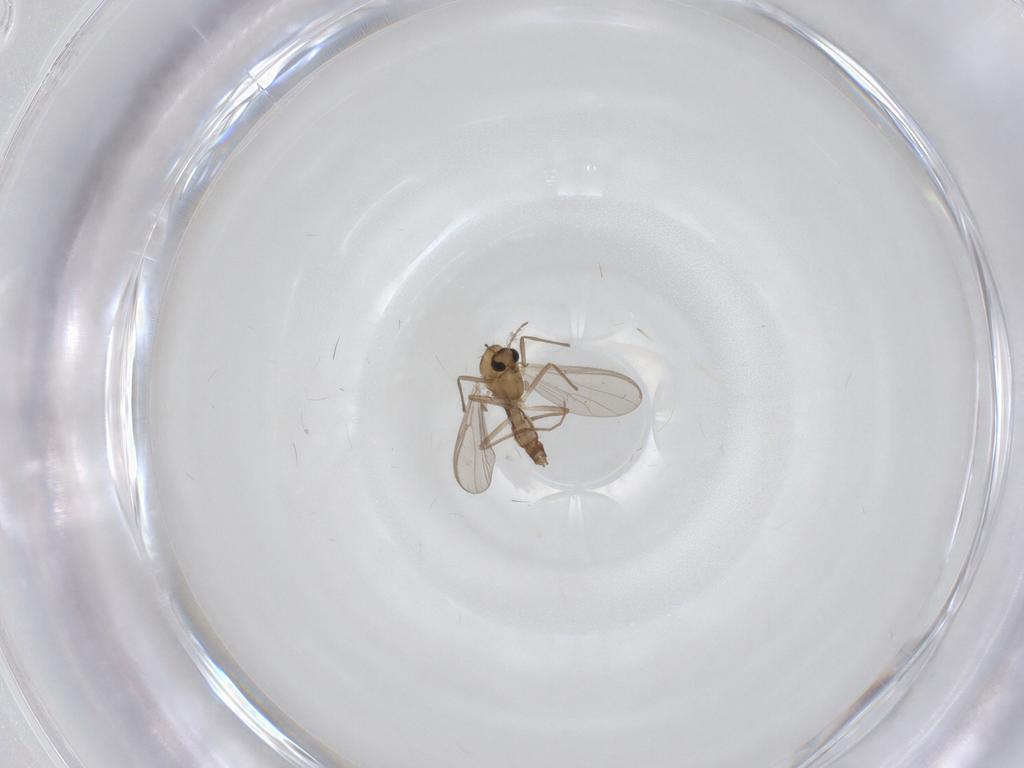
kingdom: Animalia
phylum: Arthropoda
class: Insecta
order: Diptera
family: Chironomidae
